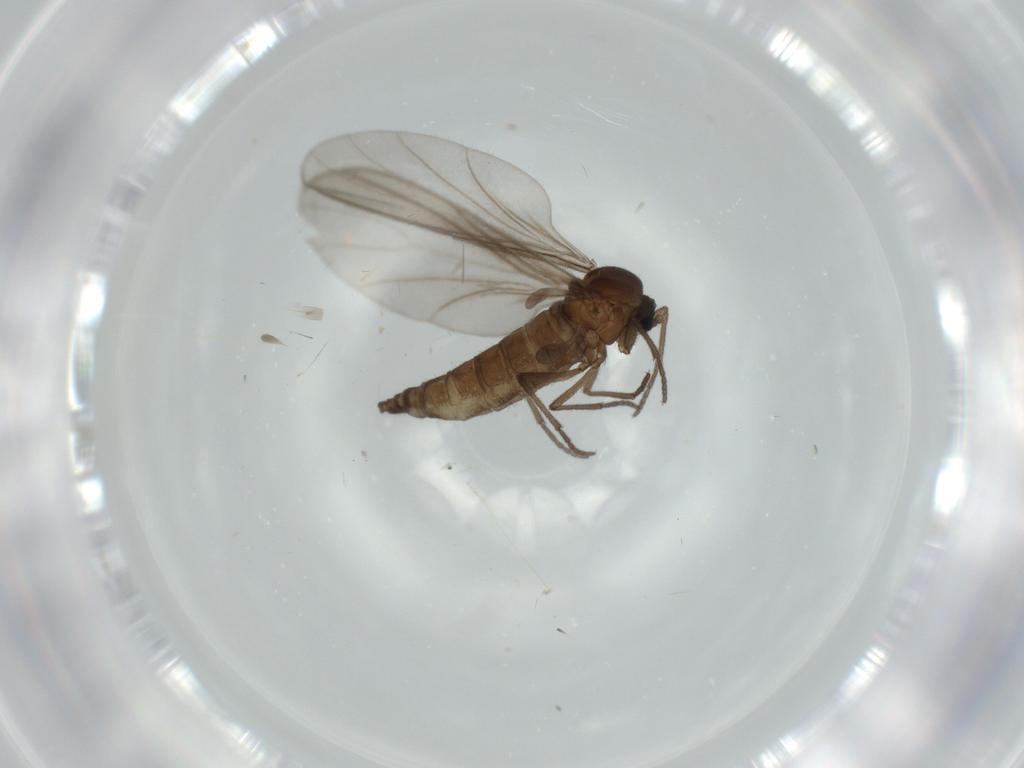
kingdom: Animalia
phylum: Arthropoda
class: Insecta
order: Diptera
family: Sciaridae
